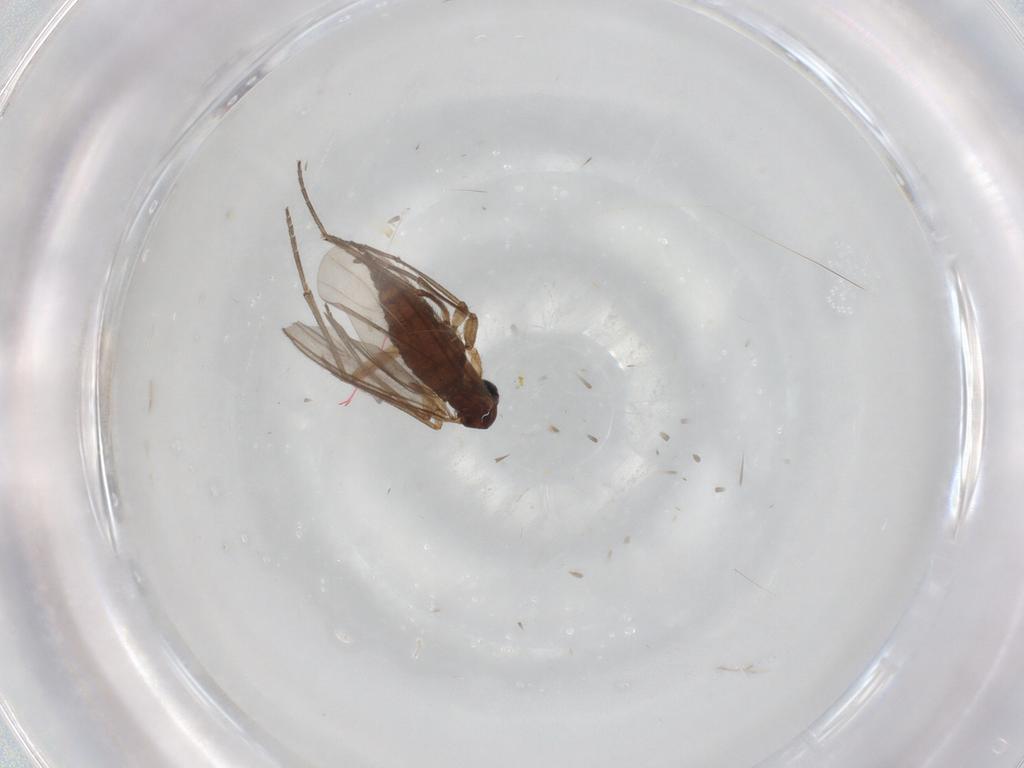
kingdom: Animalia
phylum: Arthropoda
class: Insecta
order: Diptera
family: Sciaridae
